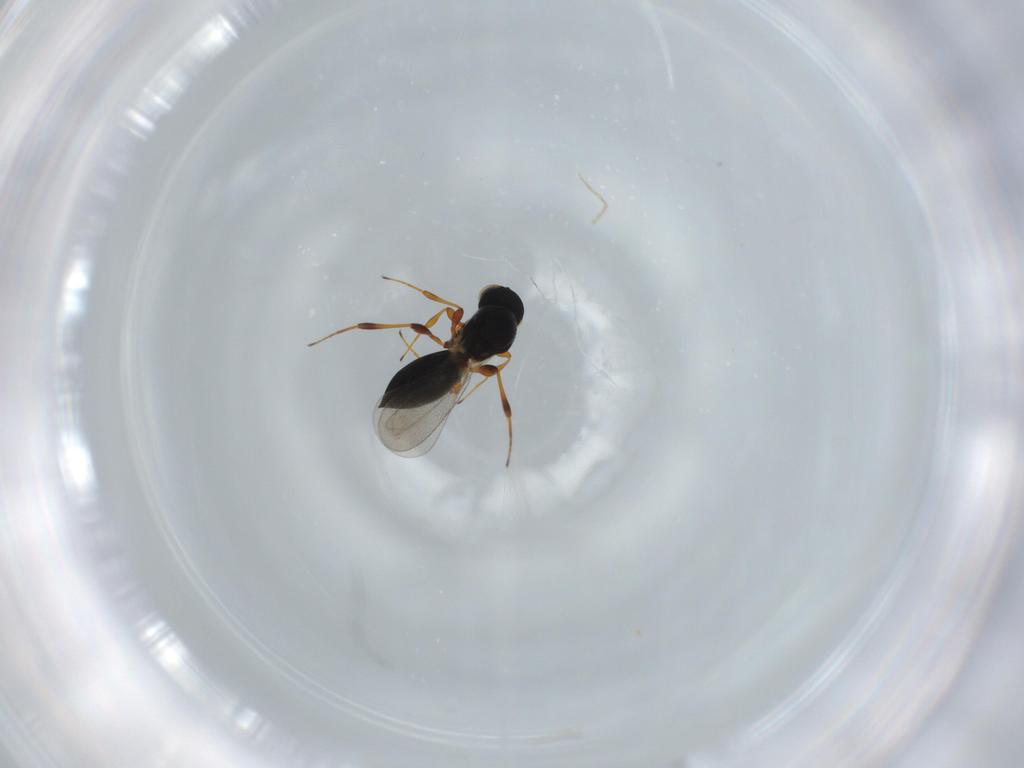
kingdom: Animalia
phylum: Arthropoda
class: Insecta
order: Hymenoptera
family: Platygastridae
